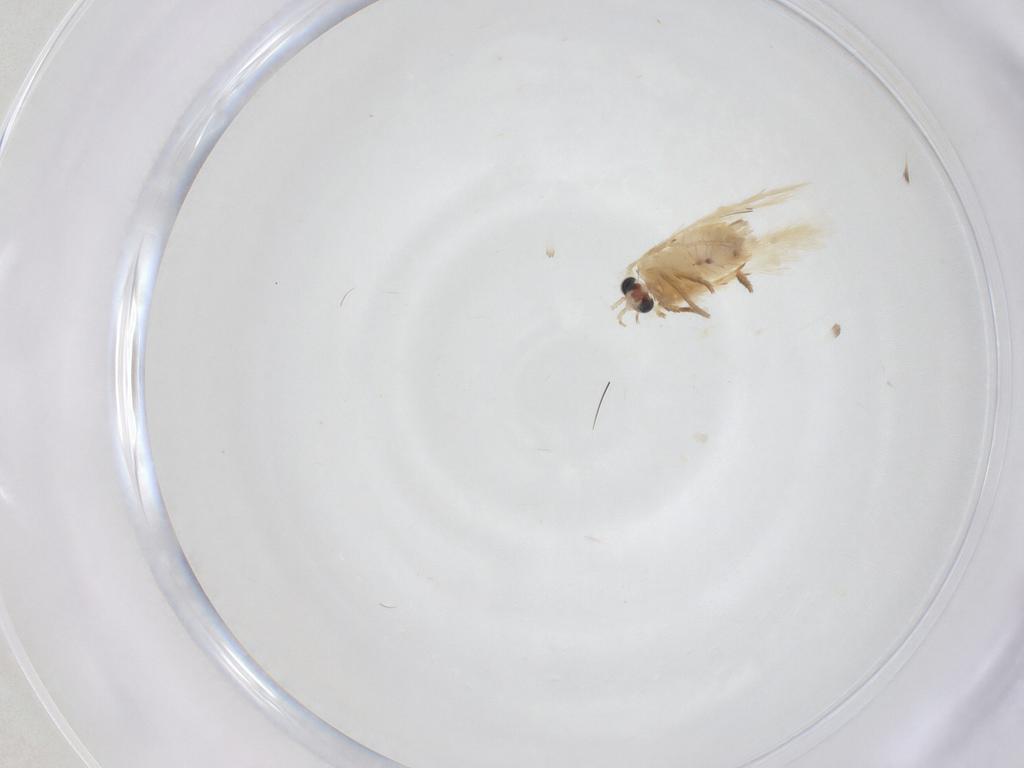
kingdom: Animalia
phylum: Arthropoda
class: Insecta
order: Lepidoptera
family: Nepticulidae
